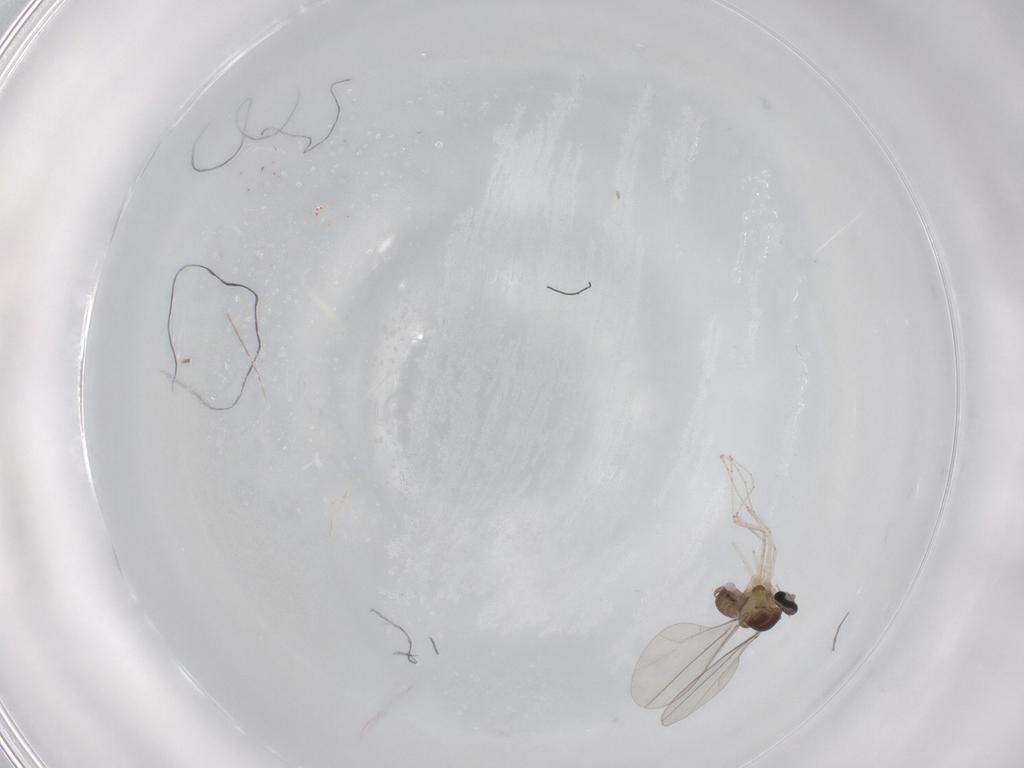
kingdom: Animalia
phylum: Arthropoda
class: Insecta
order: Diptera
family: Cecidomyiidae
